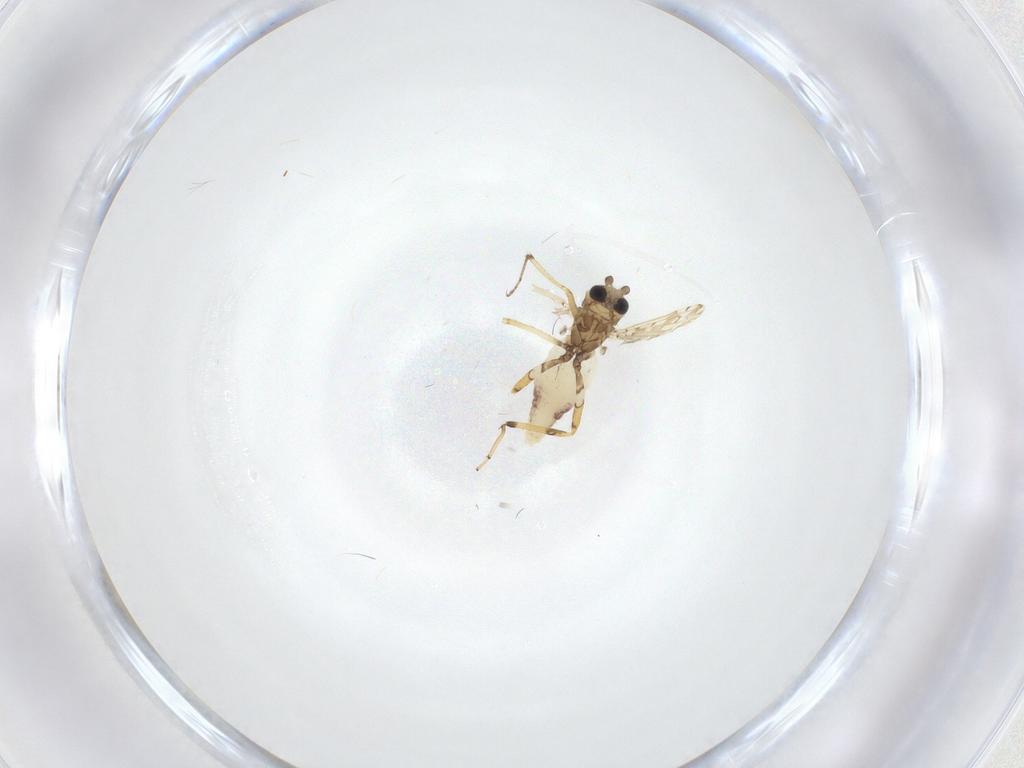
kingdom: Animalia
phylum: Arthropoda
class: Insecta
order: Diptera
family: Ceratopogonidae
